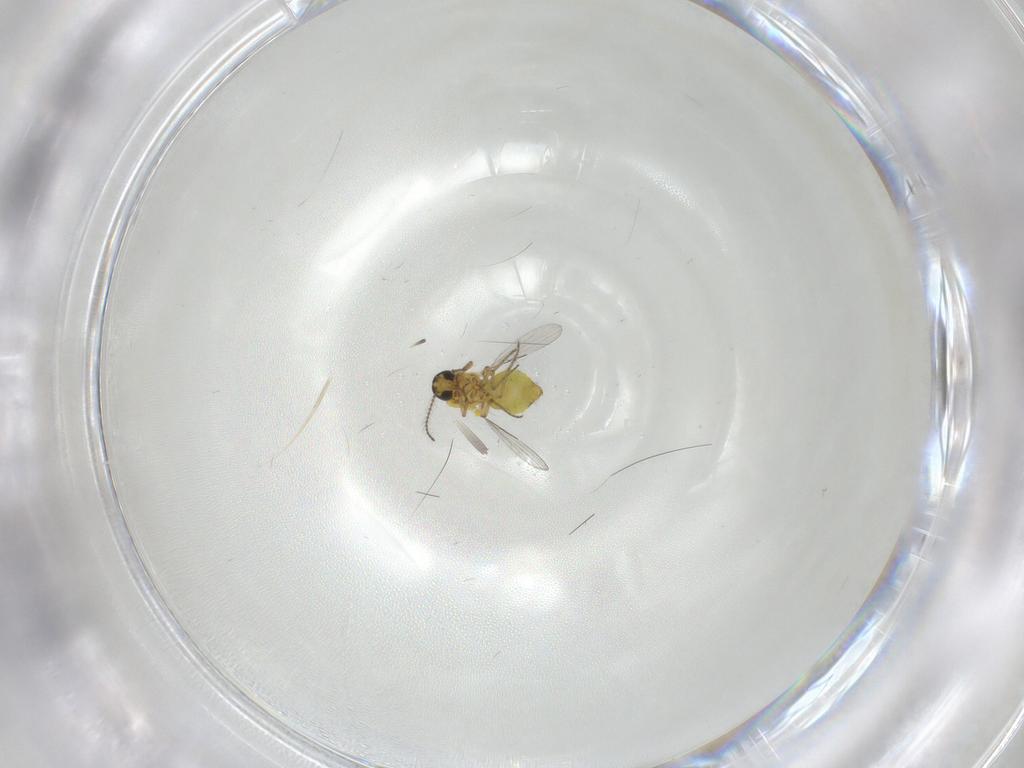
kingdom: Animalia
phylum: Arthropoda
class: Insecta
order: Diptera
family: Ceratopogonidae
